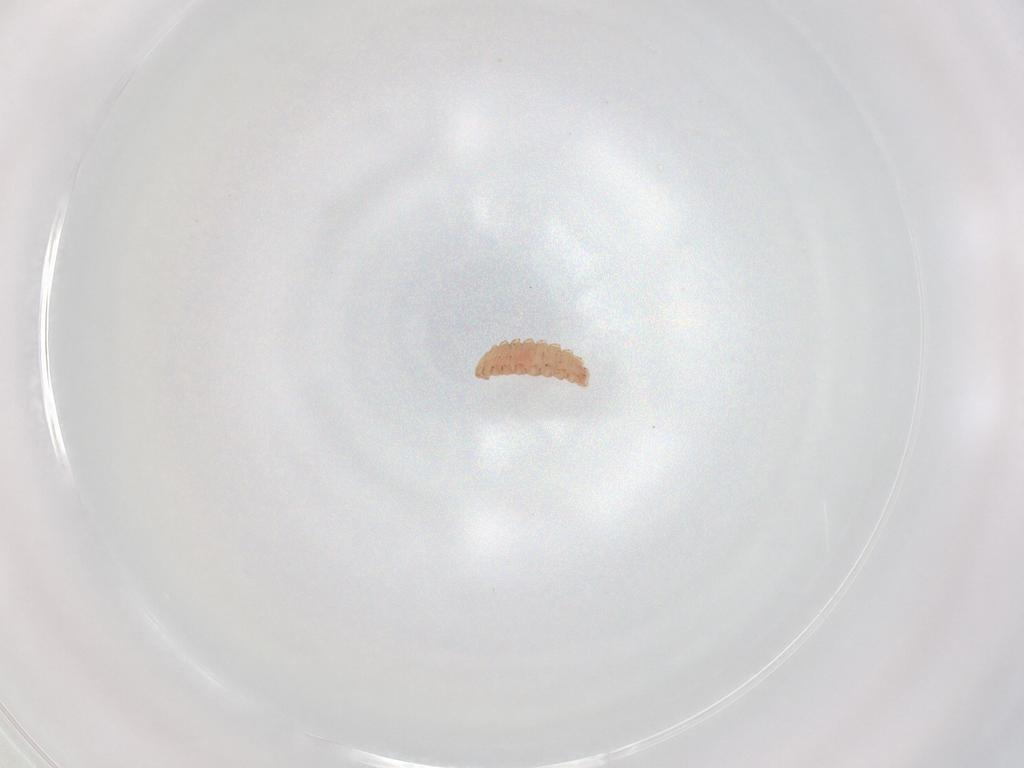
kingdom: Animalia
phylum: Arthropoda
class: Insecta
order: Diptera
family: Cecidomyiidae
